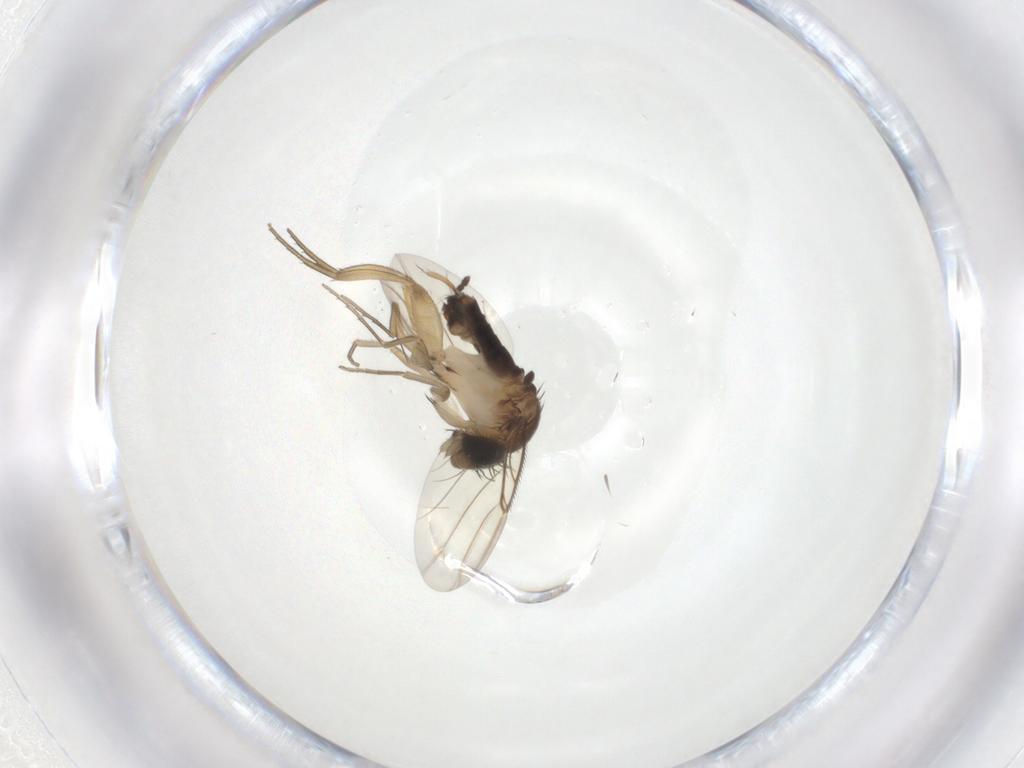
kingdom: Animalia
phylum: Arthropoda
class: Insecta
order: Diptera
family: Phoridae
